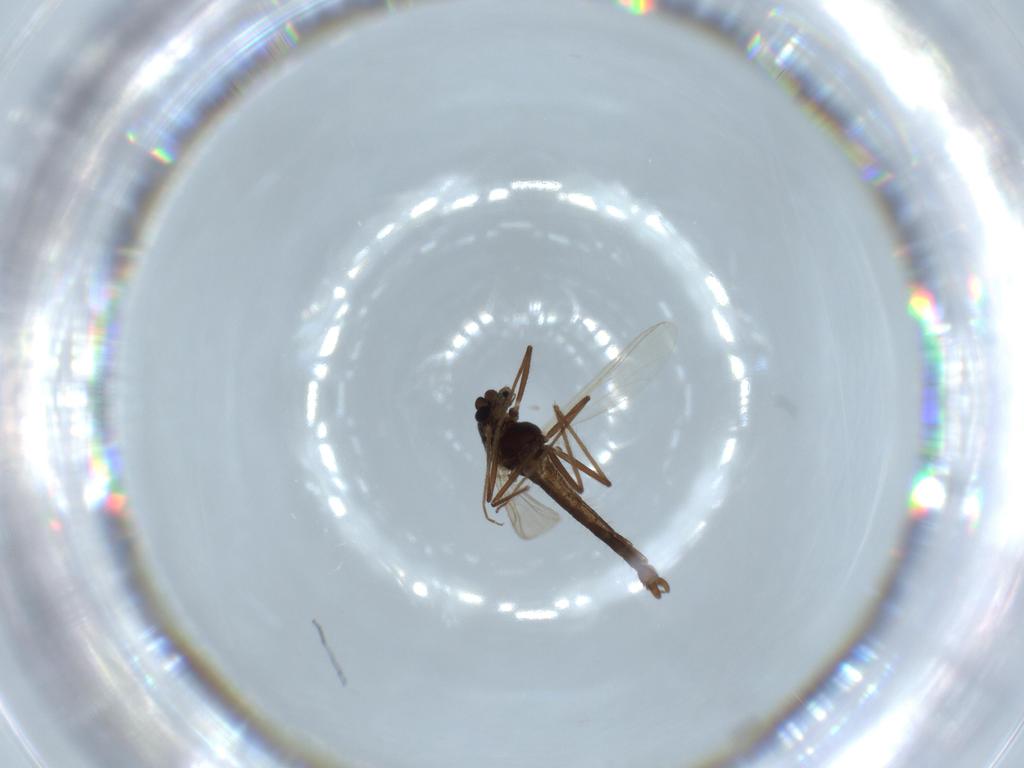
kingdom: Animalia
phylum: Arthropoda
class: Insecta
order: Diptera
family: Chironomidae
